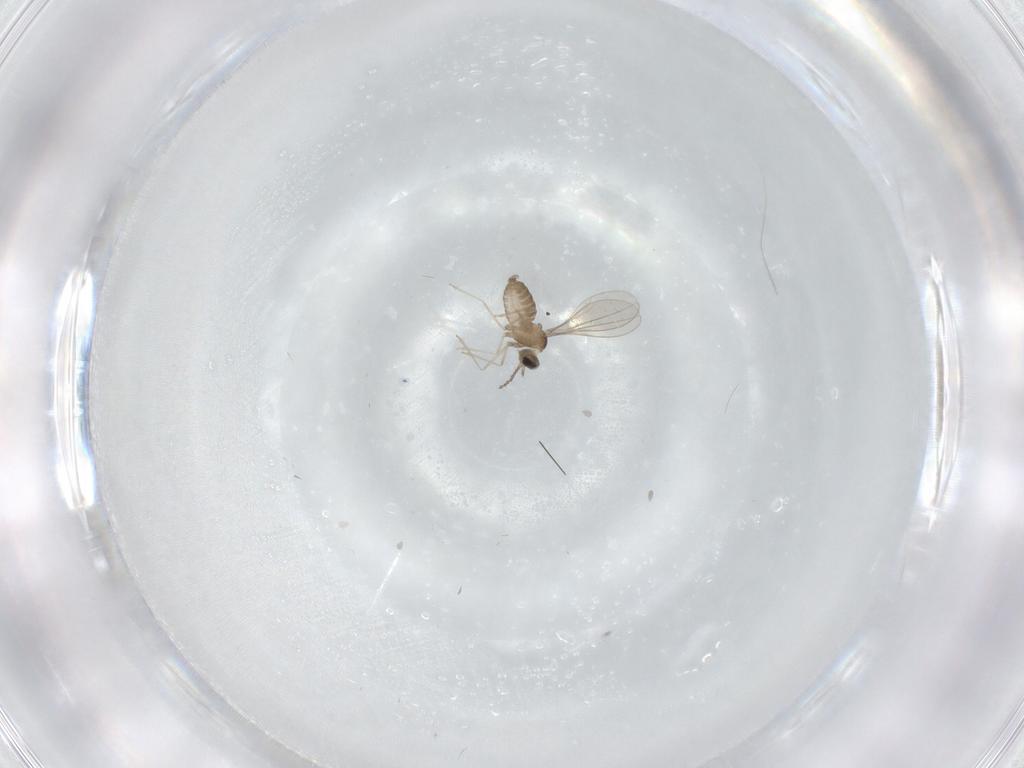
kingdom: Animalia
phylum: Arthropoda
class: Insecta
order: Diptera
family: Cecidomyiidae
